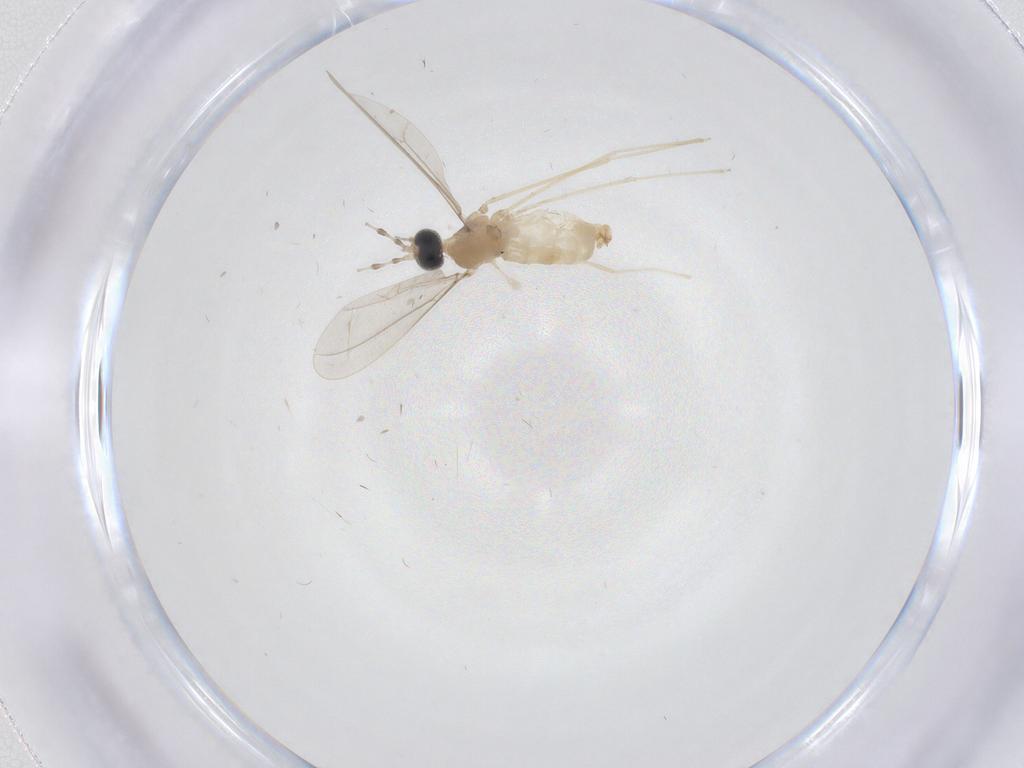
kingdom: Animalia
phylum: Arthropoda
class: Insecta
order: Diptera
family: Cecidomyiidae
